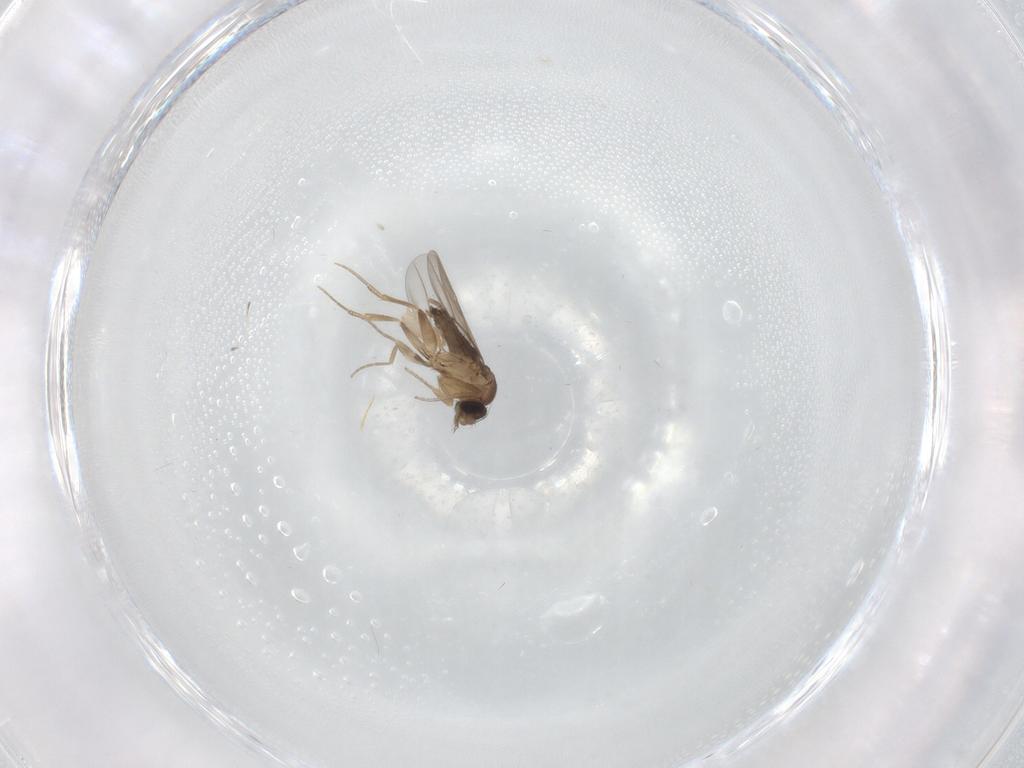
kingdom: Animalia
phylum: Arthropoda
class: Insecta
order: Diptera
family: Phoridae
